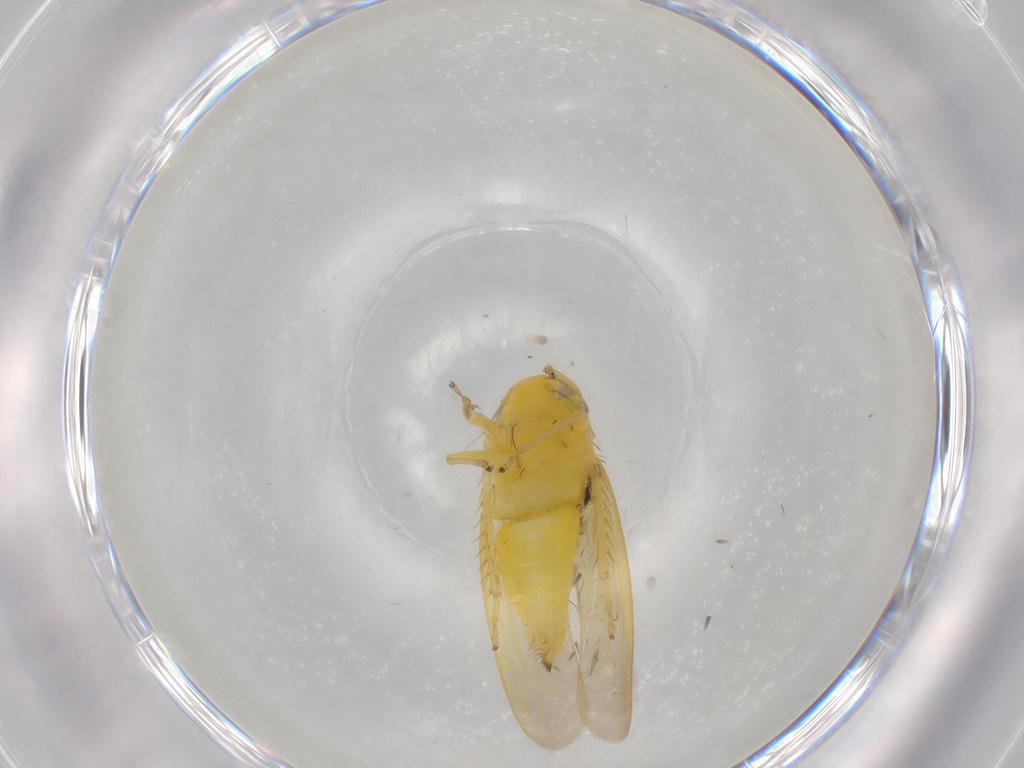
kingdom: Animalia
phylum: Arthropoda
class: Insecta
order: Hemiptera
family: Cicadellidae
